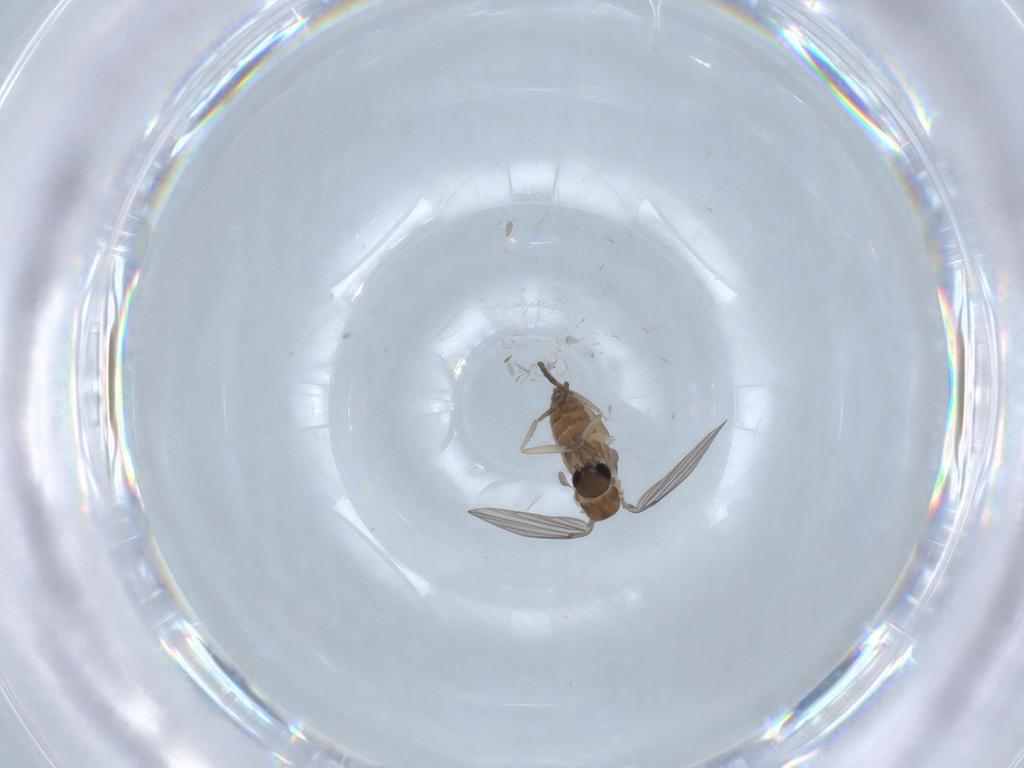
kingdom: Animalia
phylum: Arthropoda
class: Insecta
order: Diptera
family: Psychodidae
